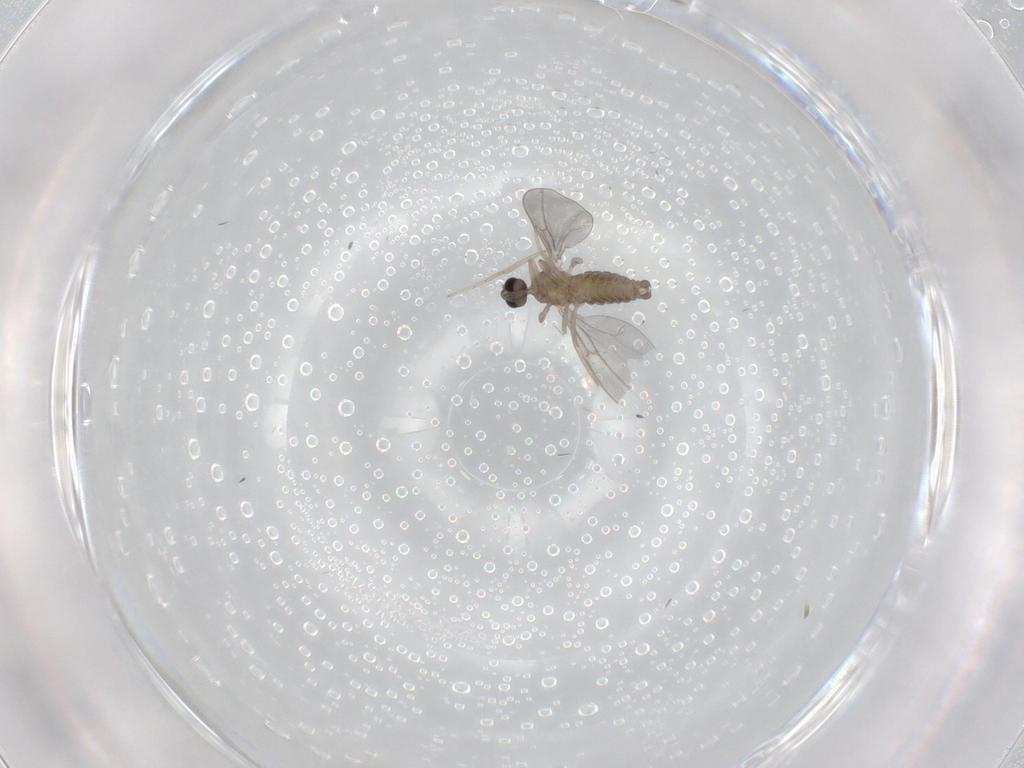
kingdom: Animalia
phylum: Arthropoda
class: Insecta
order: Diptera
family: Cecidomyiidae
